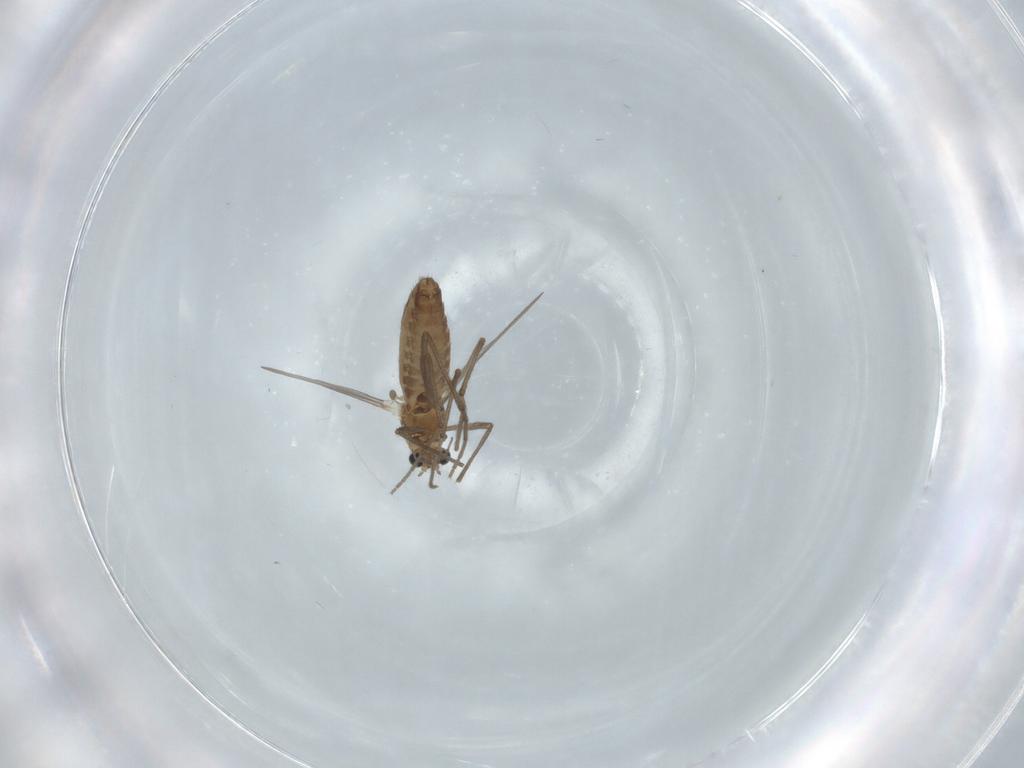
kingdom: Animalia
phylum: Arthropoda
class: Insecta
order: Diptera
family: Chironomidae
